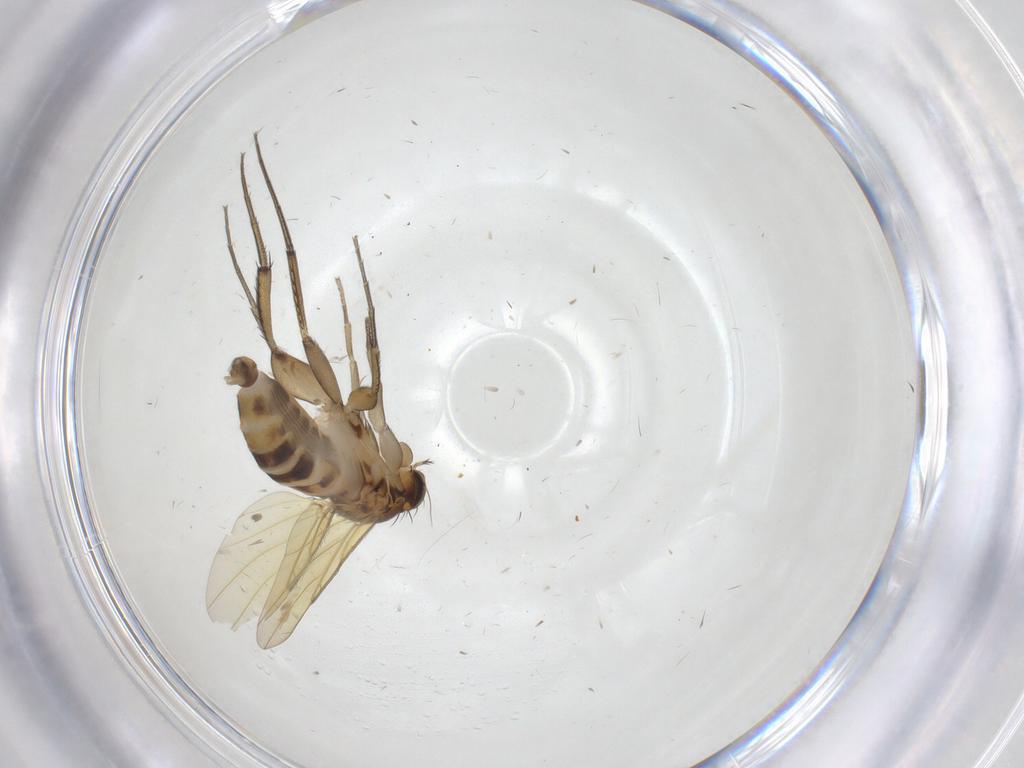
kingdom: Animalia
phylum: Arthropoda
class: Insecta
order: Diptera
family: Phoridae
